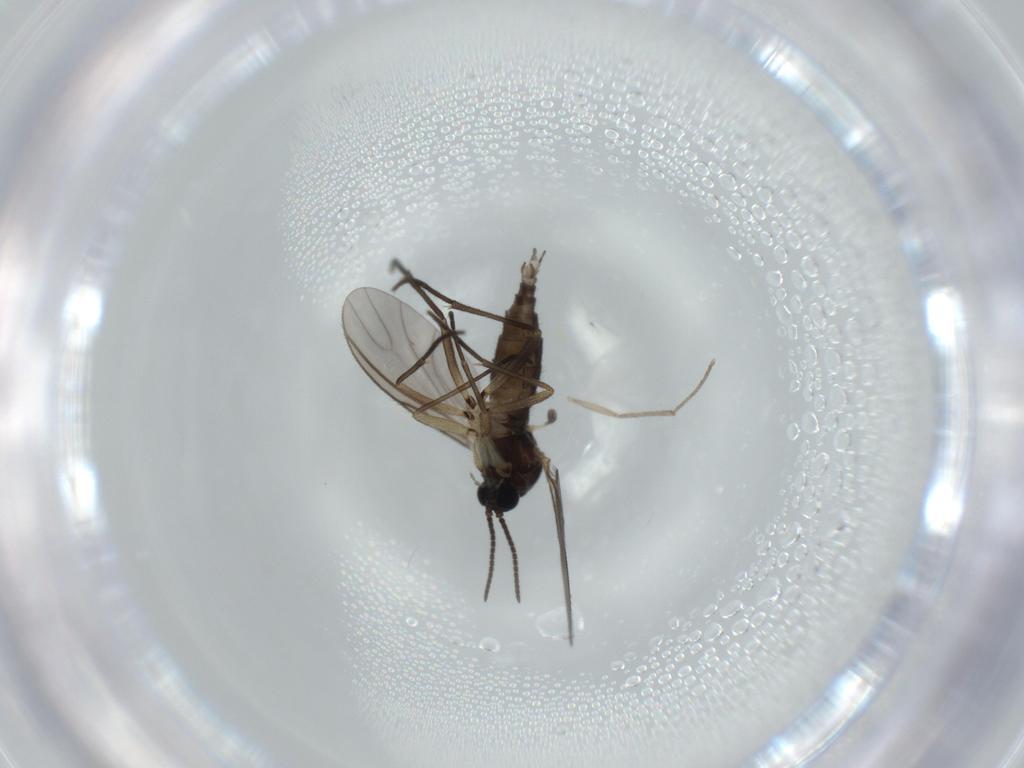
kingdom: Animalia
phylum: Arthropoda
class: Insecta
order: Diptera
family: Sciaridae
